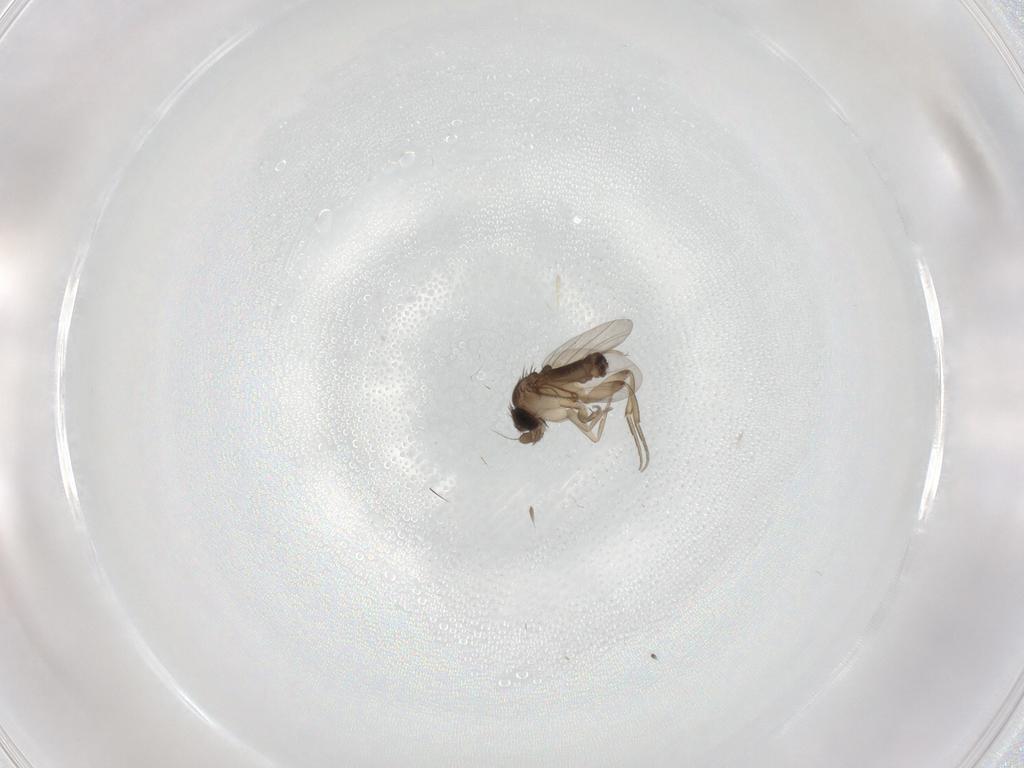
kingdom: Animalia
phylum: Arthropoda
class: Insecta
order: Diptera
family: Phoridae
